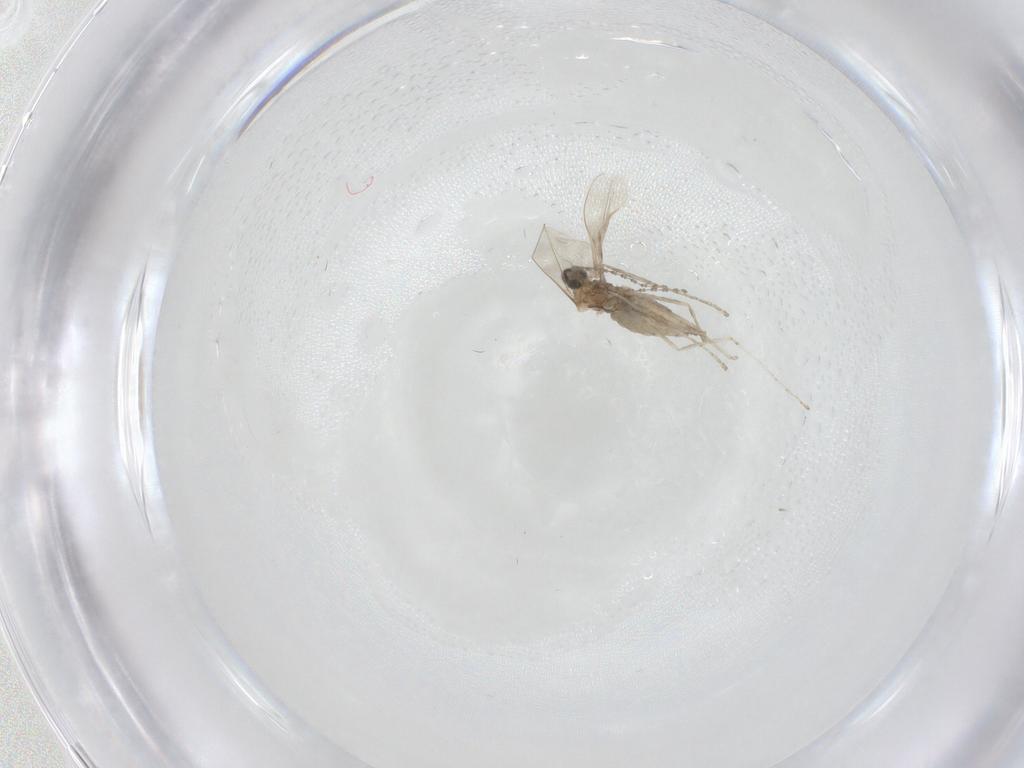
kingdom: Animalia
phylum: Arthropoda
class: Insecta
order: Diptera
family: Cecidomyiidae
